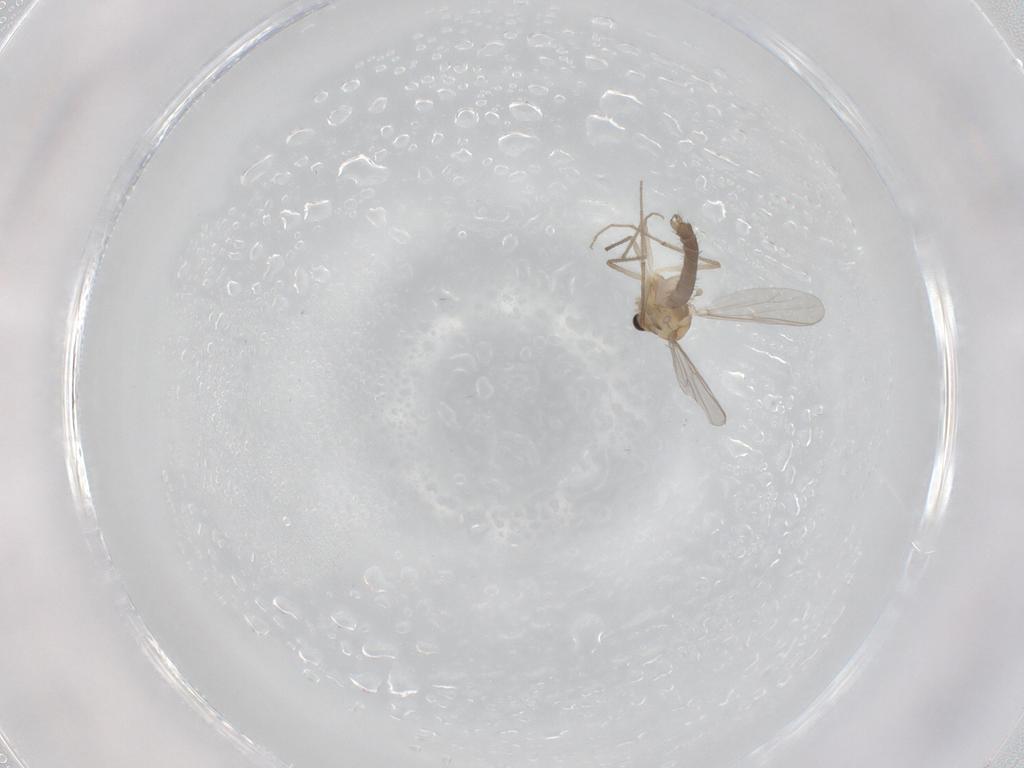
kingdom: Animalia
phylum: Arthropoda
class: Insecta
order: Diptera
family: Chironomidae
